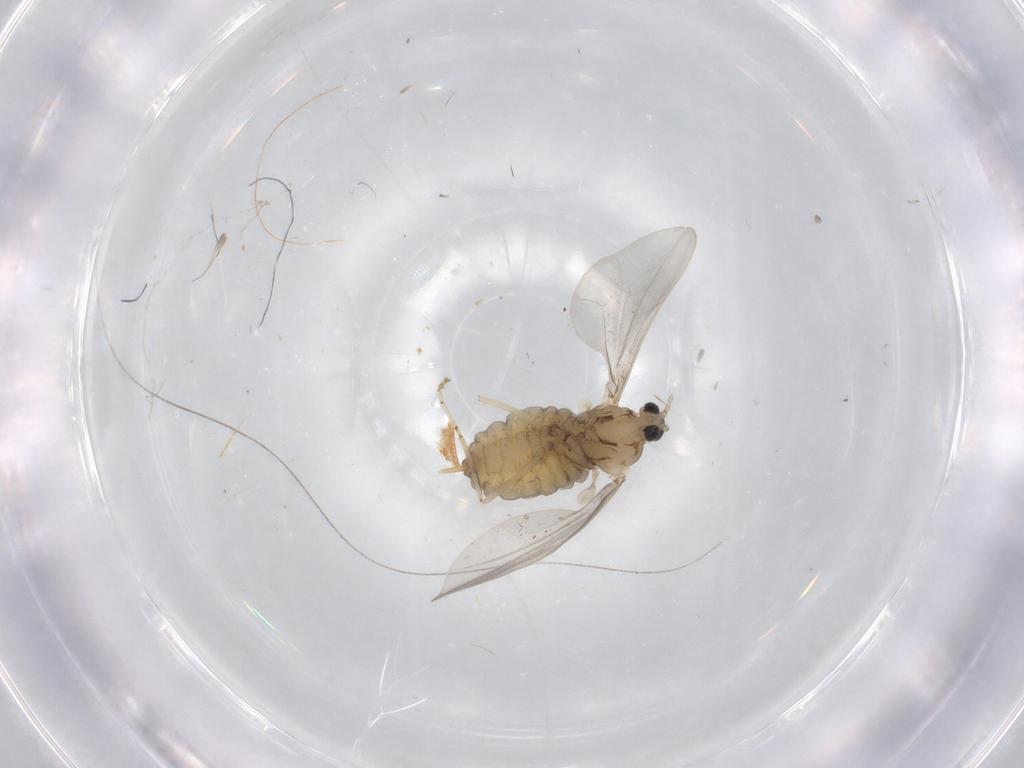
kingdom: Animalia
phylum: Arthropoda
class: Insecta
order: Diptera
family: Cecidomyiidae
